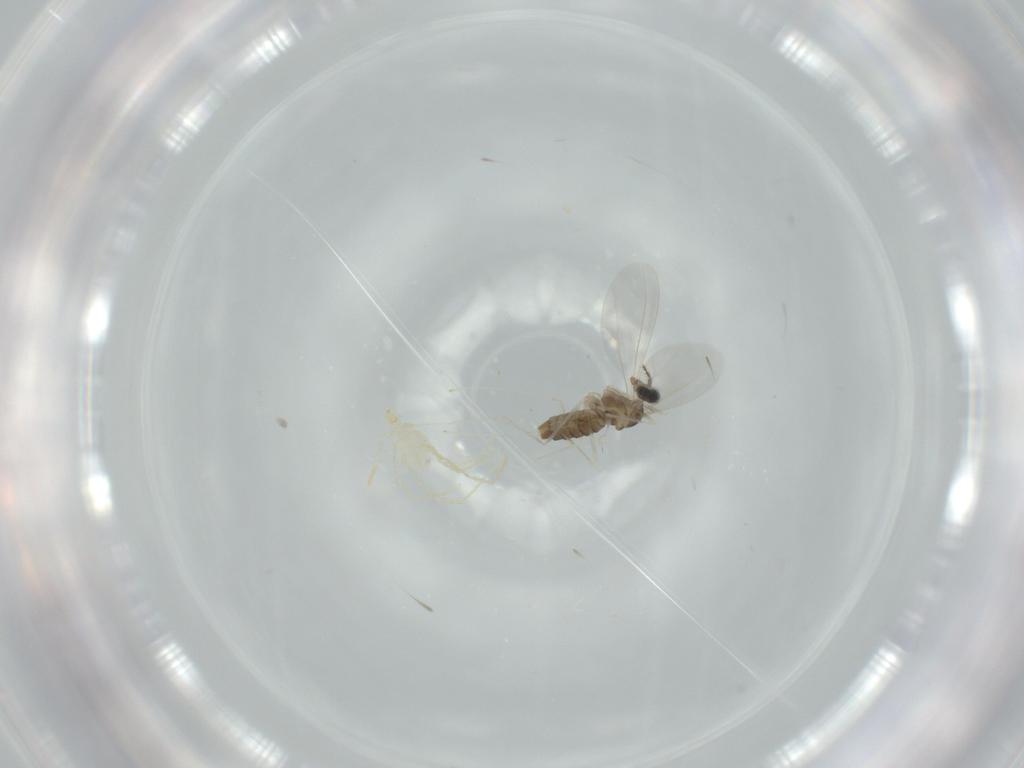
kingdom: Animalia
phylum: Arthropoda
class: Insecta
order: Diptera
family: Cecidomyiidae
